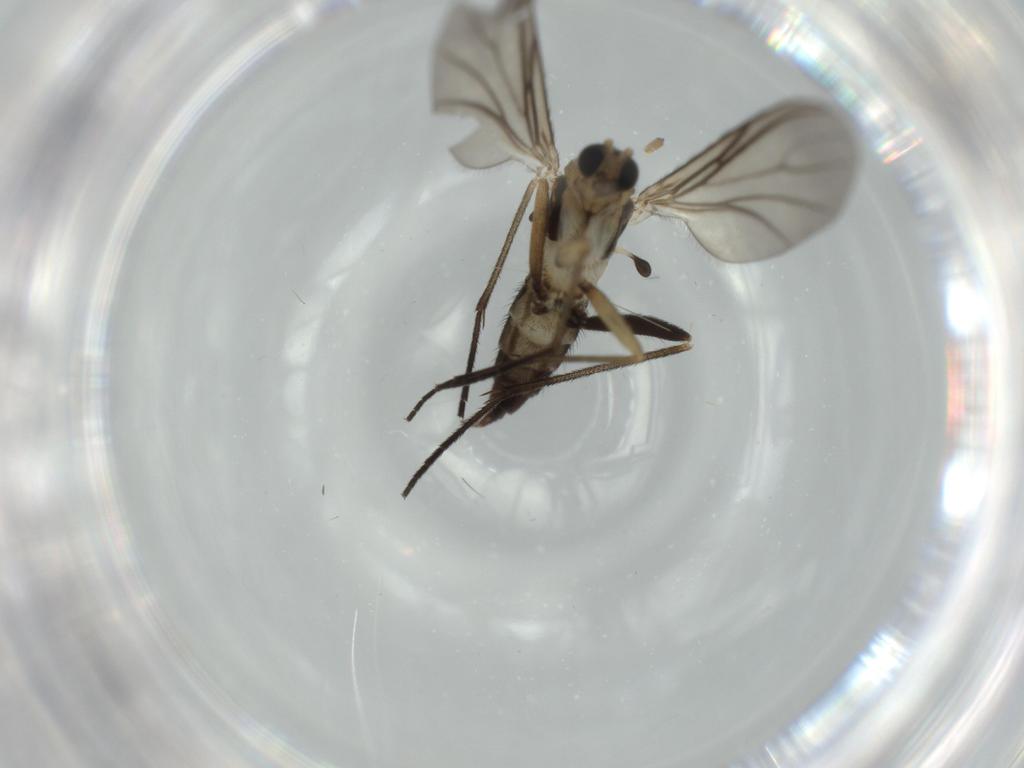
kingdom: Animalia
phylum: Arthropoda
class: Insecta
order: Diptera
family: Sciaridae
